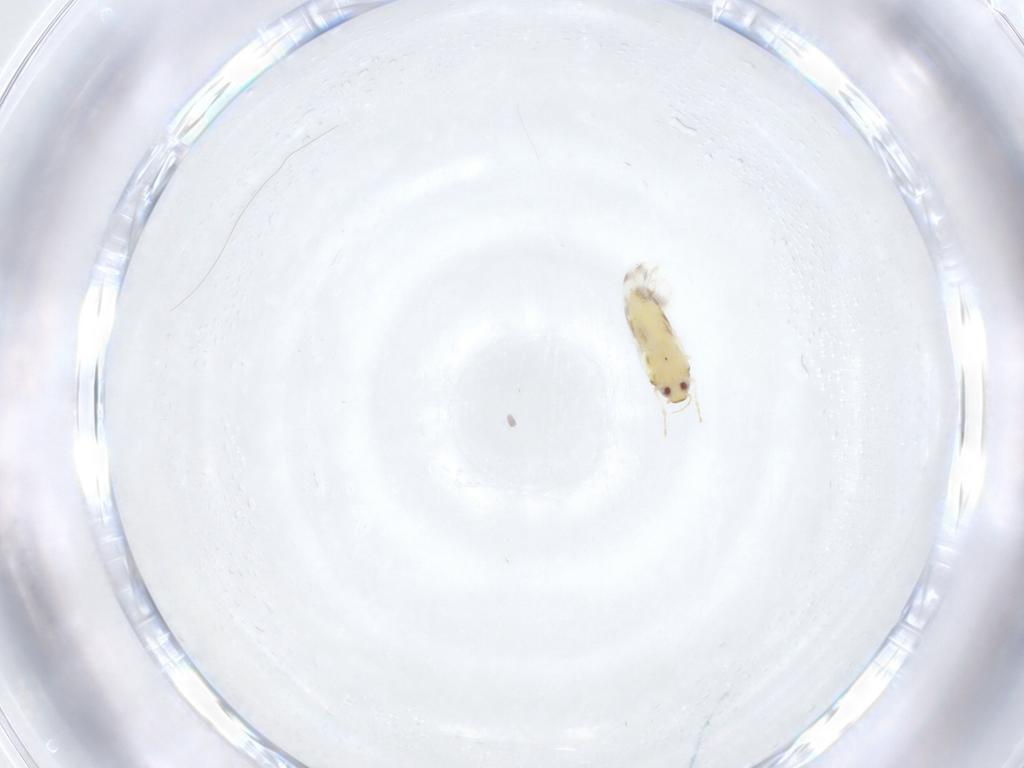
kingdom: Animalia
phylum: Arthropoda
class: Insecta
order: Hemiptera
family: Aleyrodidae
